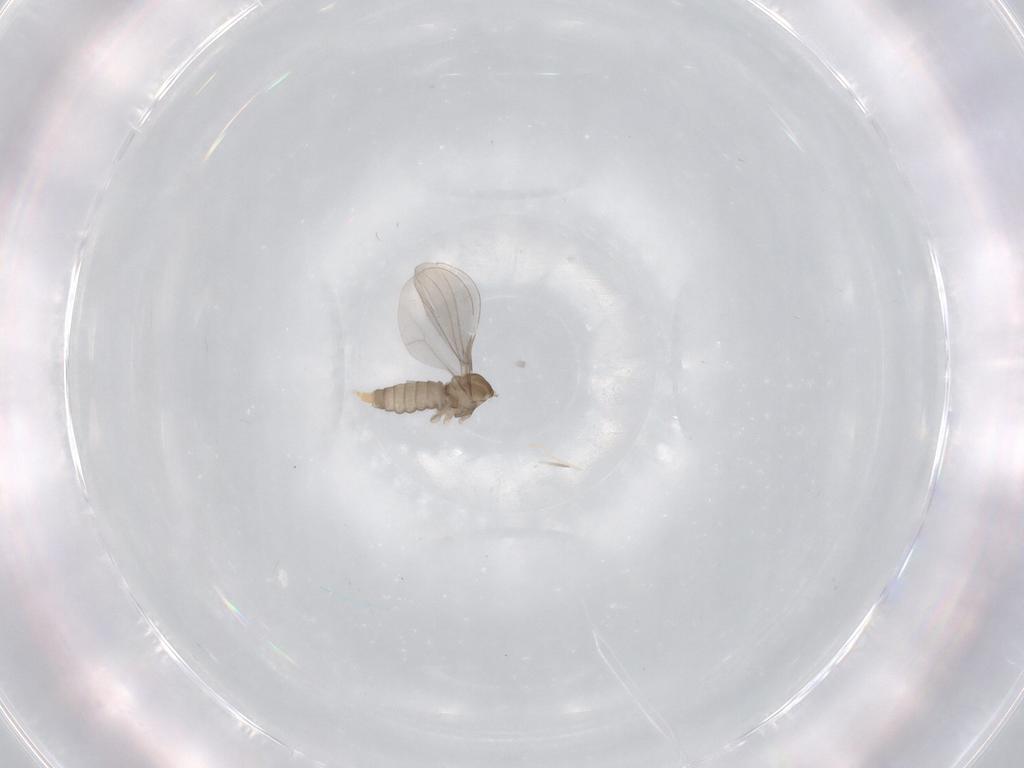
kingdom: Animalia
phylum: Arthropoda
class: Insecta
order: Diptera
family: Cecidomyiidae
